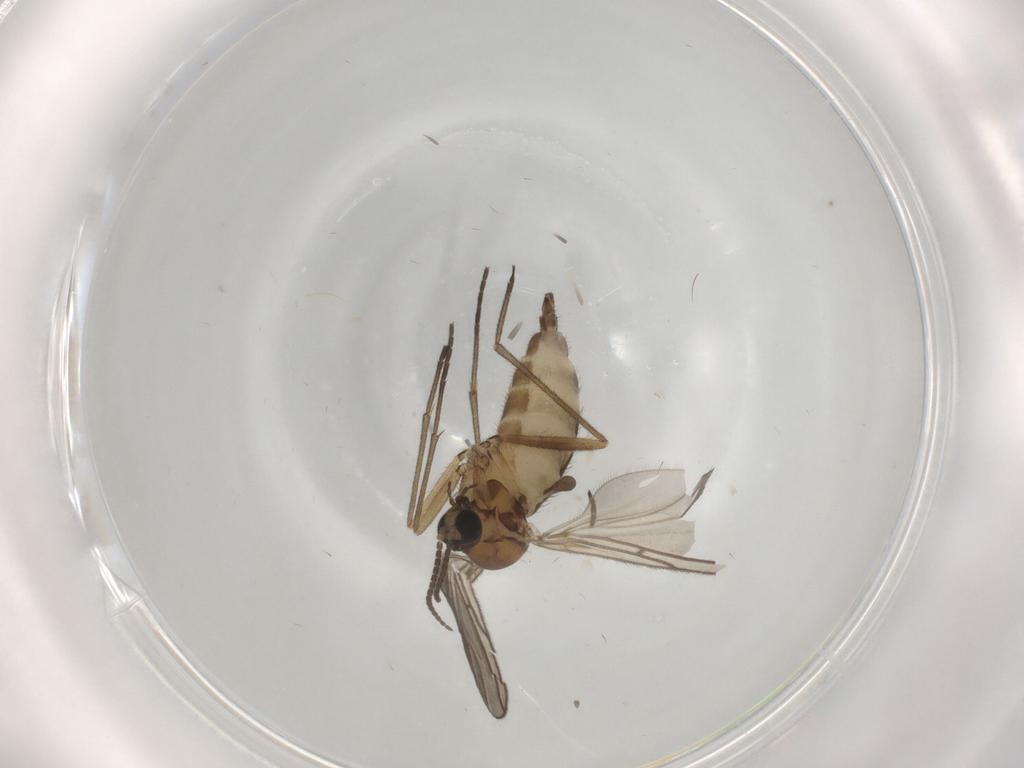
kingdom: Animalia
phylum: Arthropoda
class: Insecta
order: Diptera
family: Sciaridae
